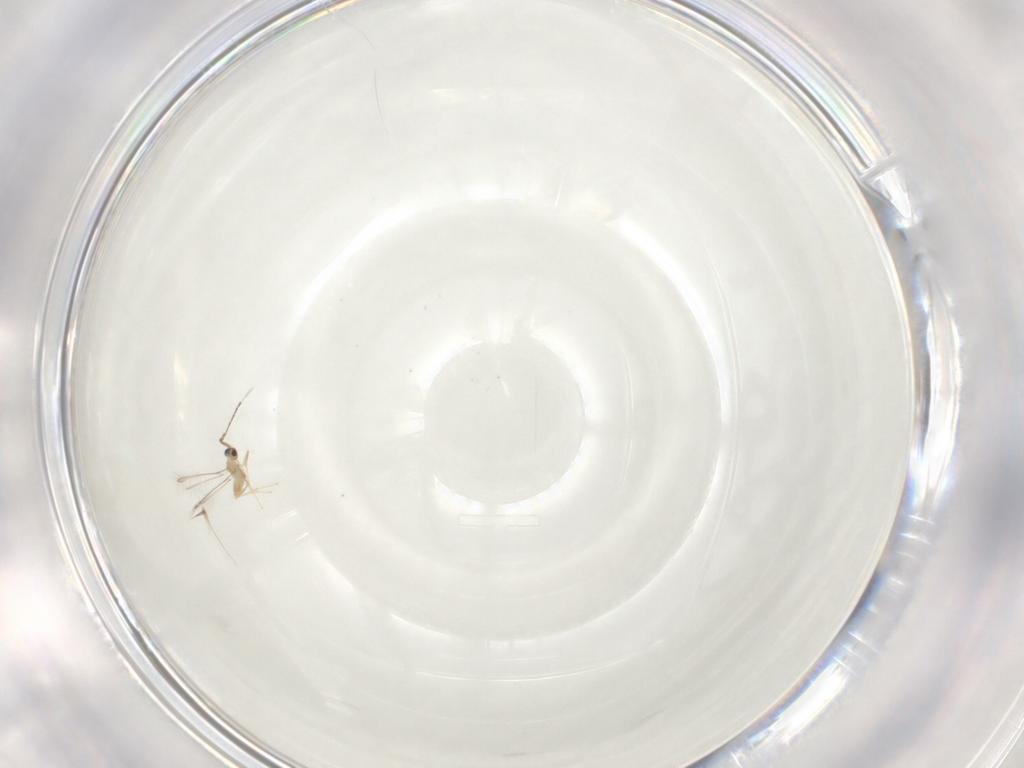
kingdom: Animalia
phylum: Arthropoda
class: Insecta
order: Hymenoptera
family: Mymaridae
